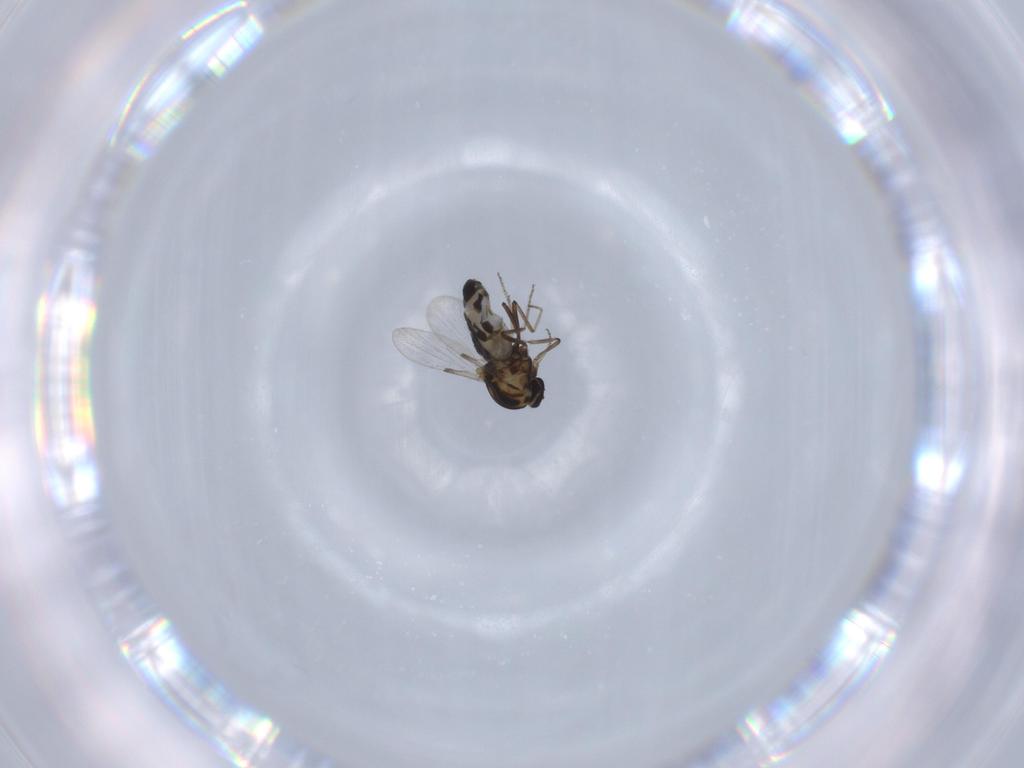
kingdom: Animalia
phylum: Arthropoda
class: Insecta
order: Diptera
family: Ceratopogonidae
